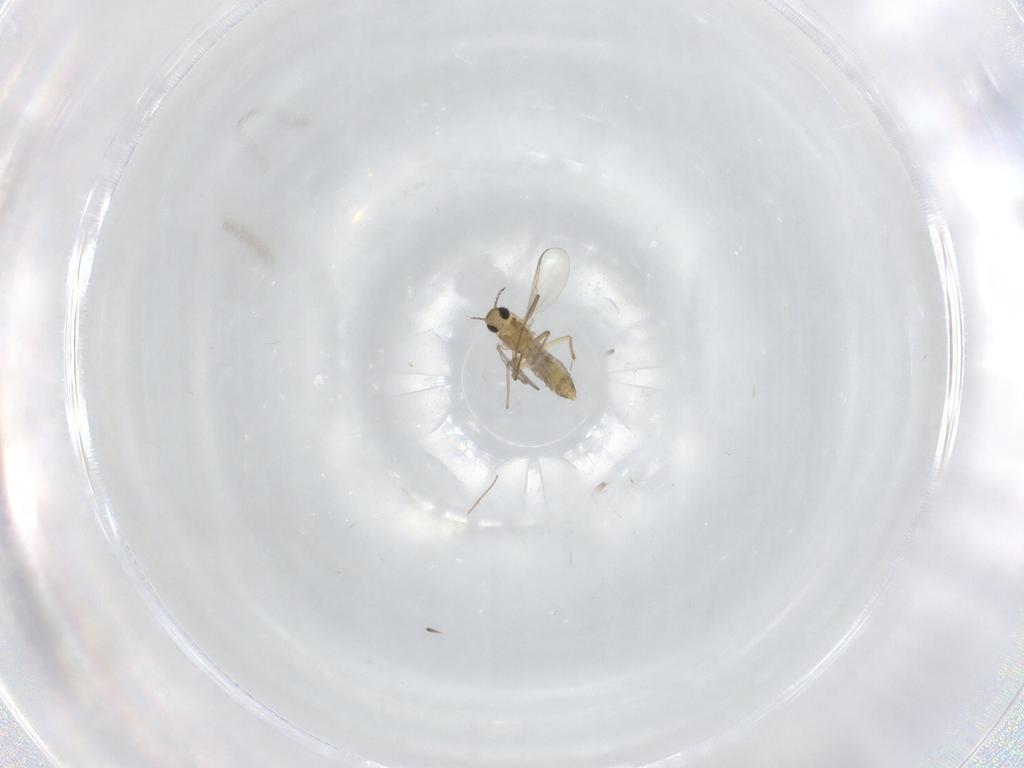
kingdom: Animalia
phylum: Arthropoda
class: Insecta
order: Diptera
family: Chironomidae
